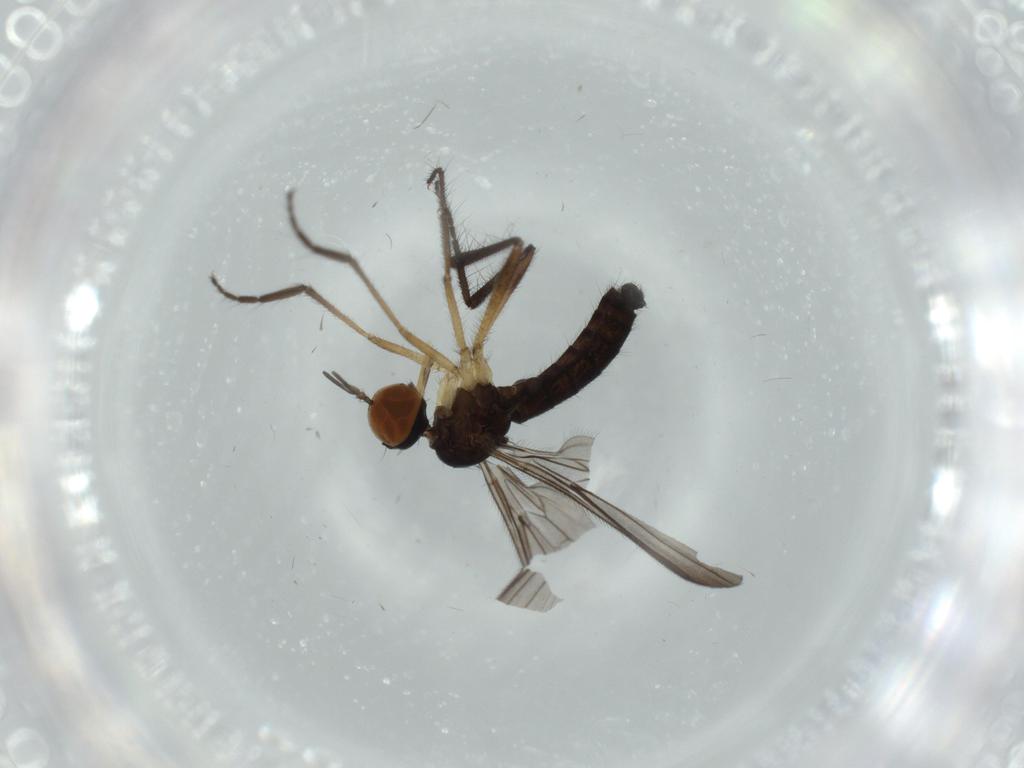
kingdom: Animalia
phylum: Arthropoda
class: Insecta
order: Diptera
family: Empididae
